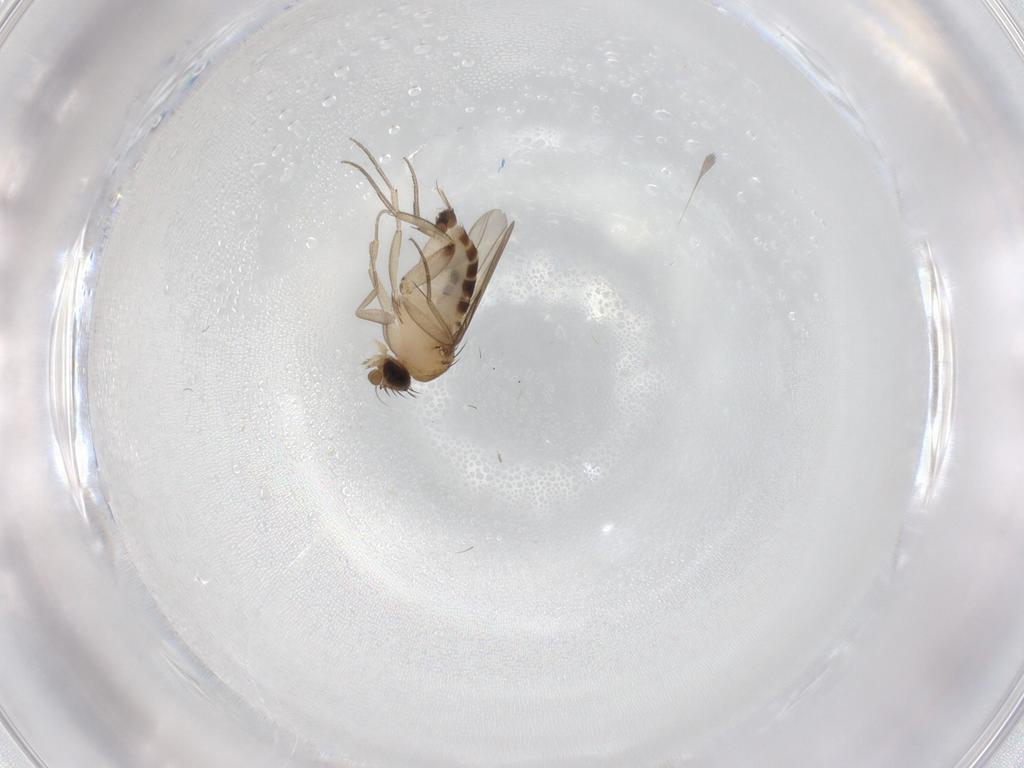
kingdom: Animalia
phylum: Arthropoda
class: Insecta
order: Diptera
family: Phoridae
